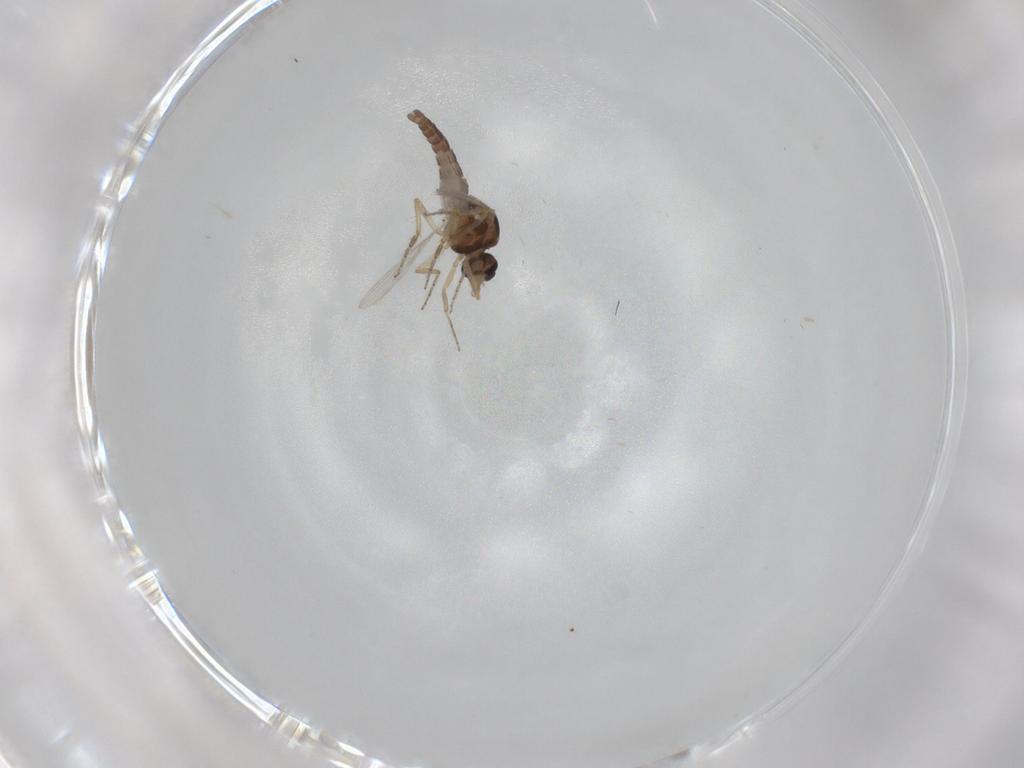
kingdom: Animalia
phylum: Arthropoda
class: Insecta
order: Diptera
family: Ceratopogonidae
